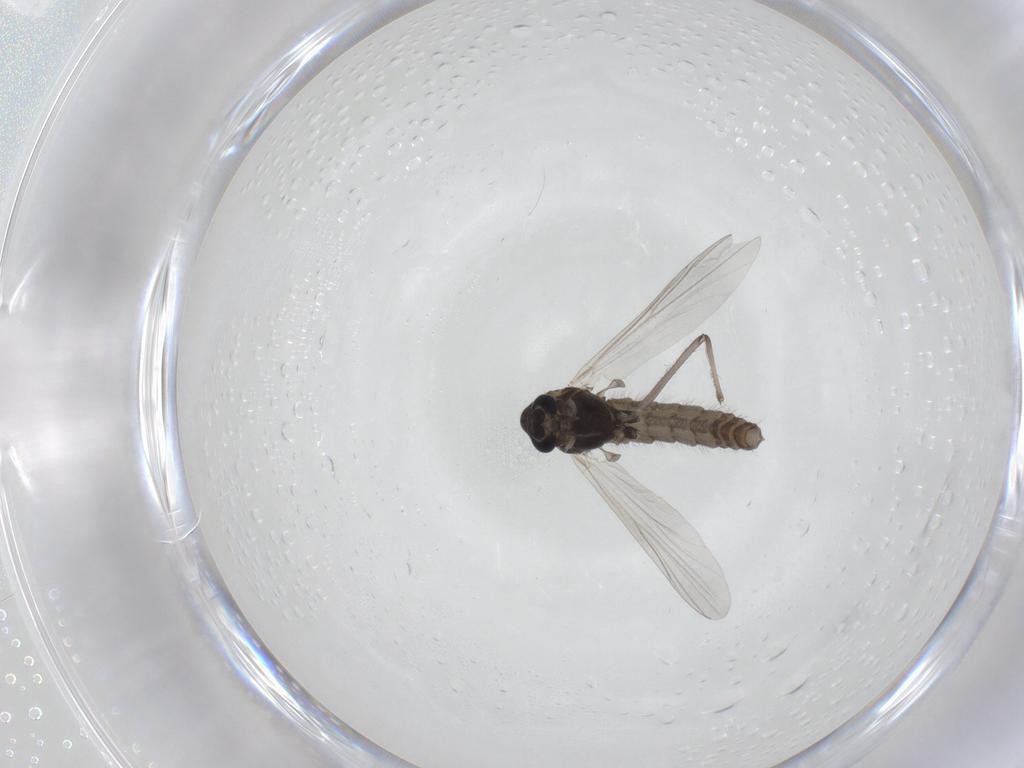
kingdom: Animalia
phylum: Arthropoda
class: Insecta
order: Diptera
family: Chironomidae
